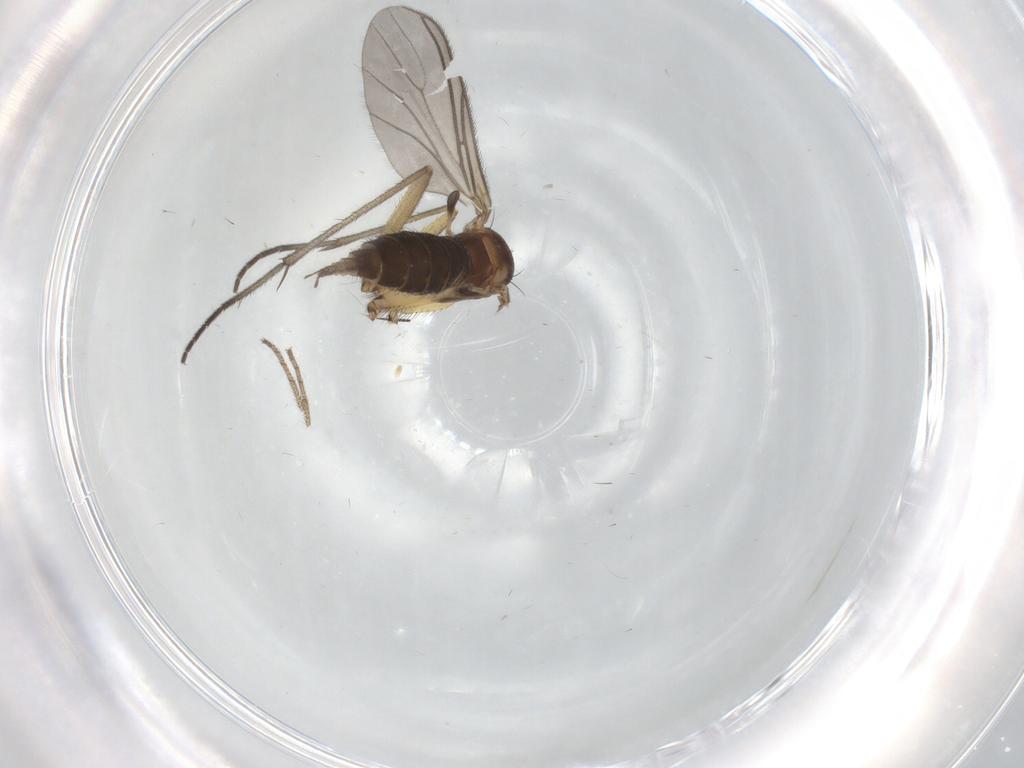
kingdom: Animalia
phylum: Arthropoda
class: Insecta
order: Diptera
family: Sciaridae
